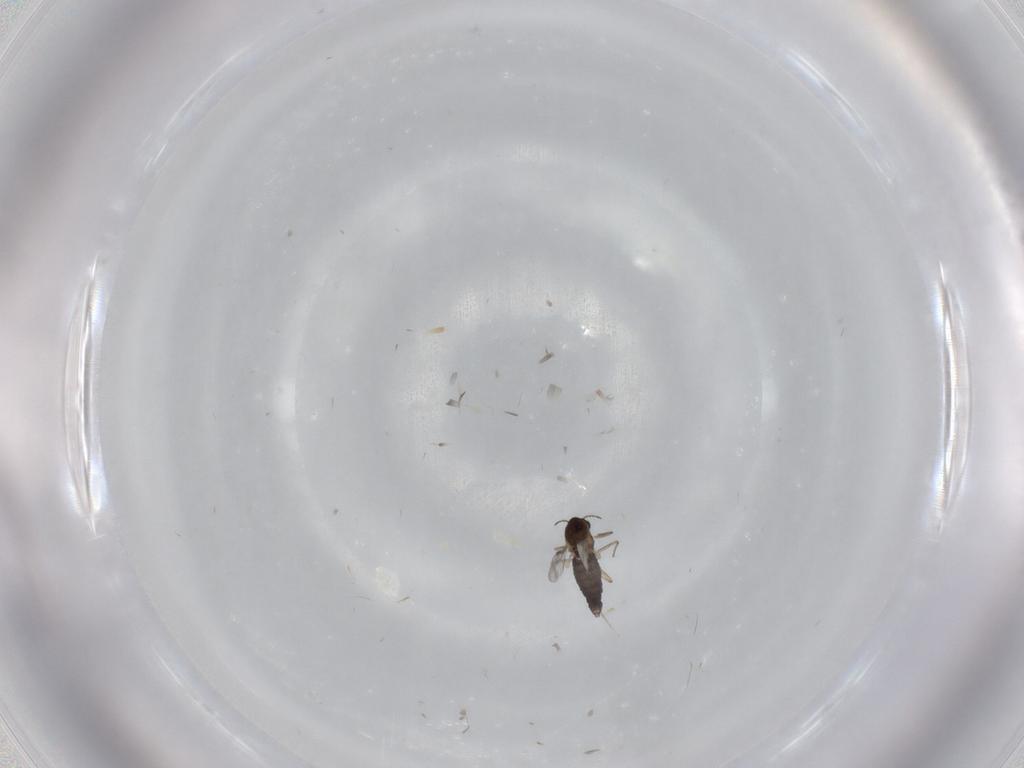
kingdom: Animalia
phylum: Arthropoda
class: Insecta
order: Diptera
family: Chironomidae
